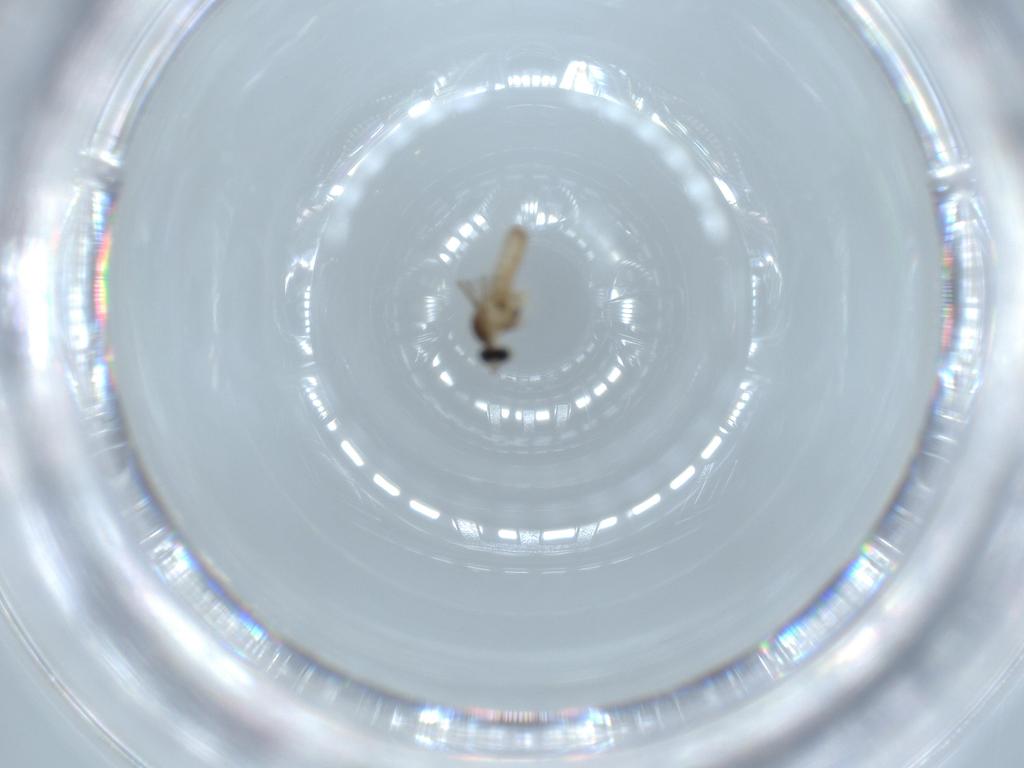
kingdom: Animalia
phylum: Arthropoda
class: Insecta
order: Diptera
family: Cecidomyiidae
